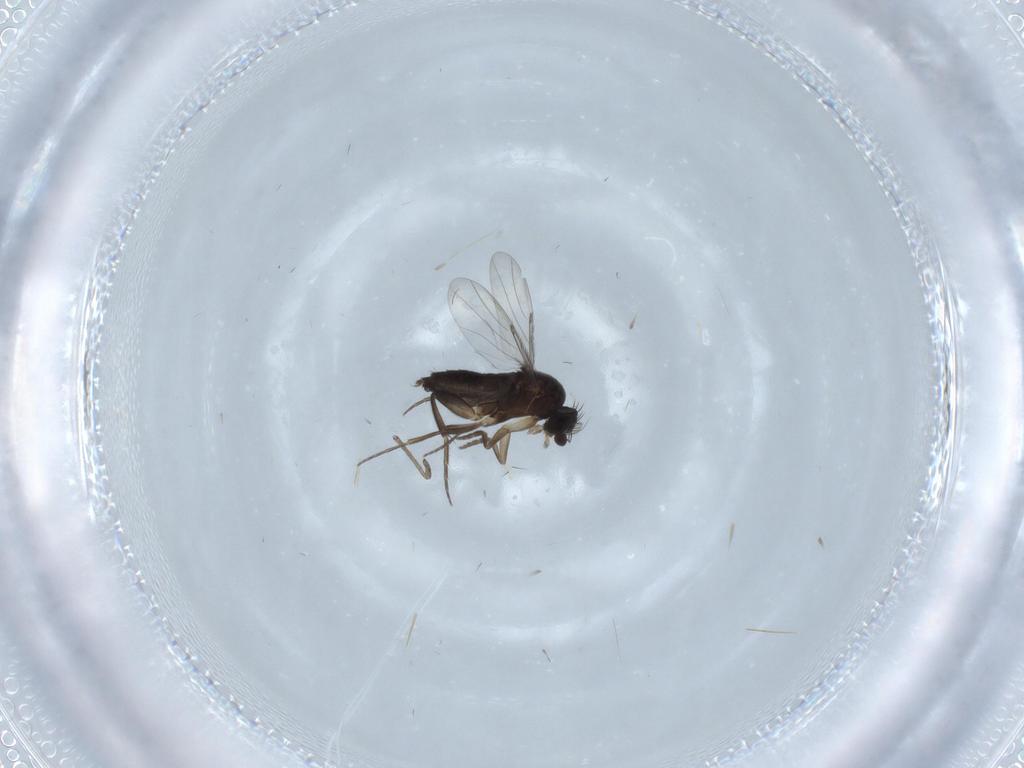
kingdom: Animalia
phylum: Arthropoda
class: Insecta
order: Diptera
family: Phoridae
